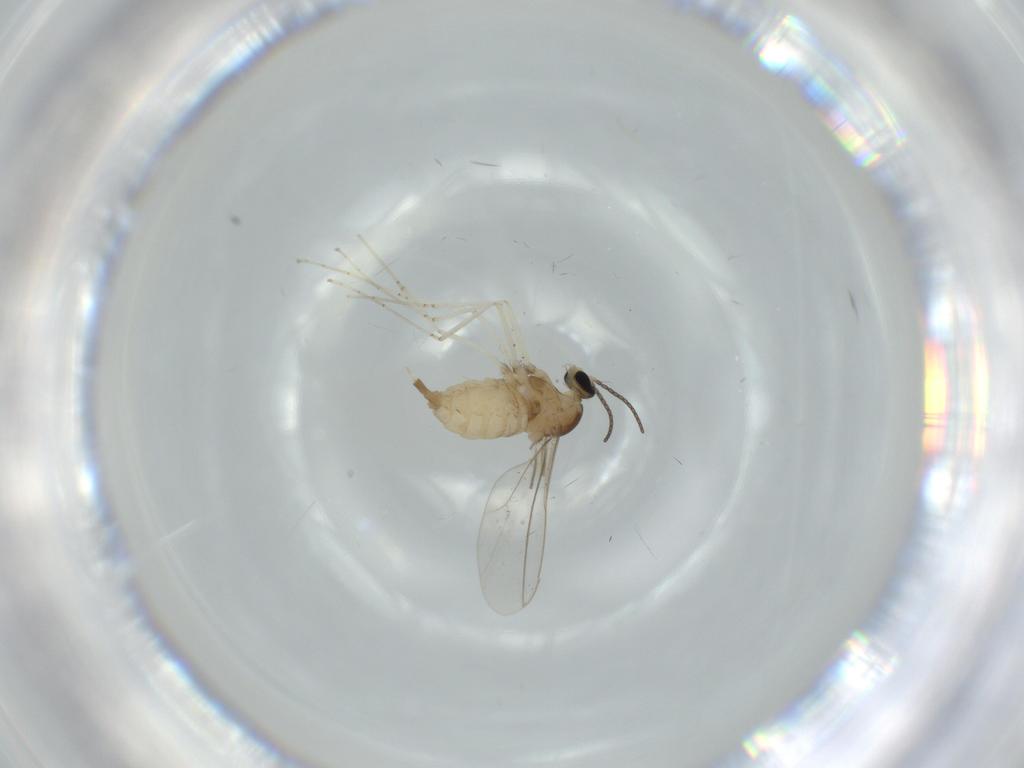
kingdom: Animalia
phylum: Arthropoda
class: Insecta
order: Diptera
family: Cecidomyiidae
